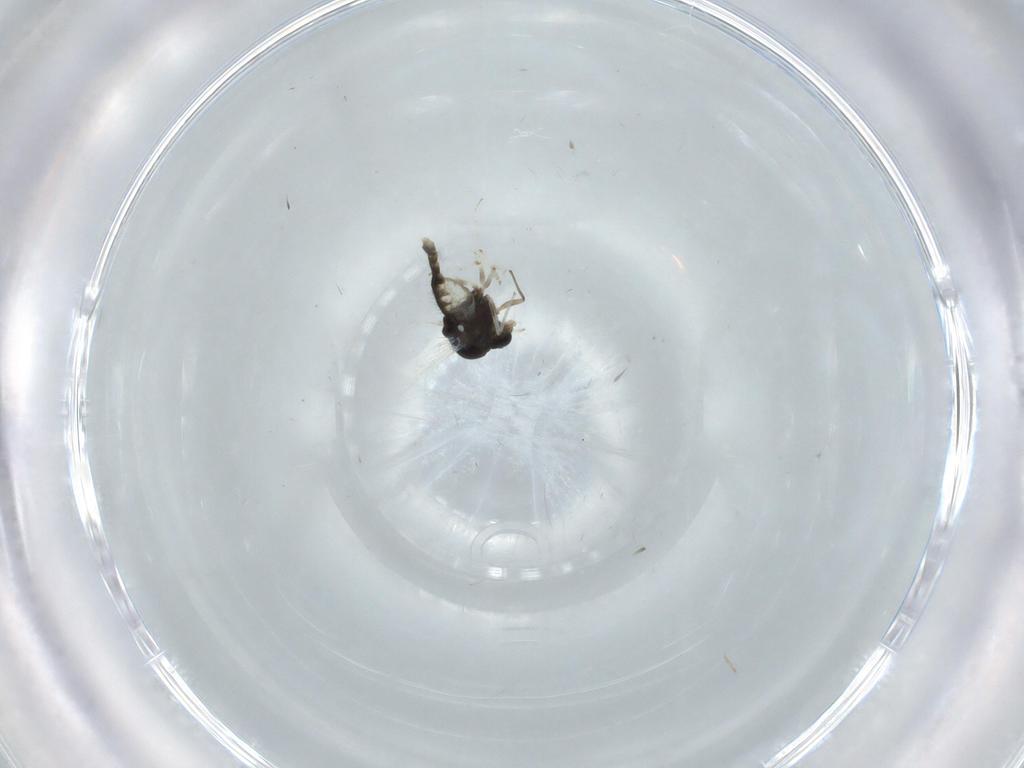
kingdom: Animalia
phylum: Arthropoda
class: Insecta
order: Diptera
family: Chironomidae
